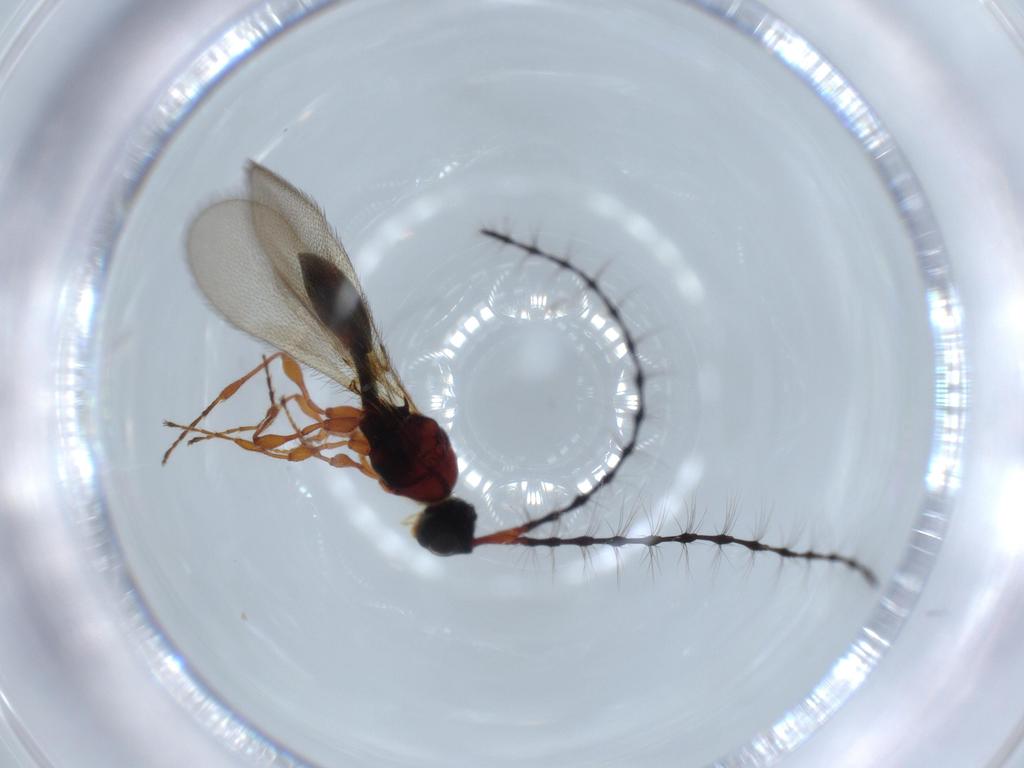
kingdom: Animalia
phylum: Arthropoda
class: Insecta
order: Hymenoptera
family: Diapriidae
